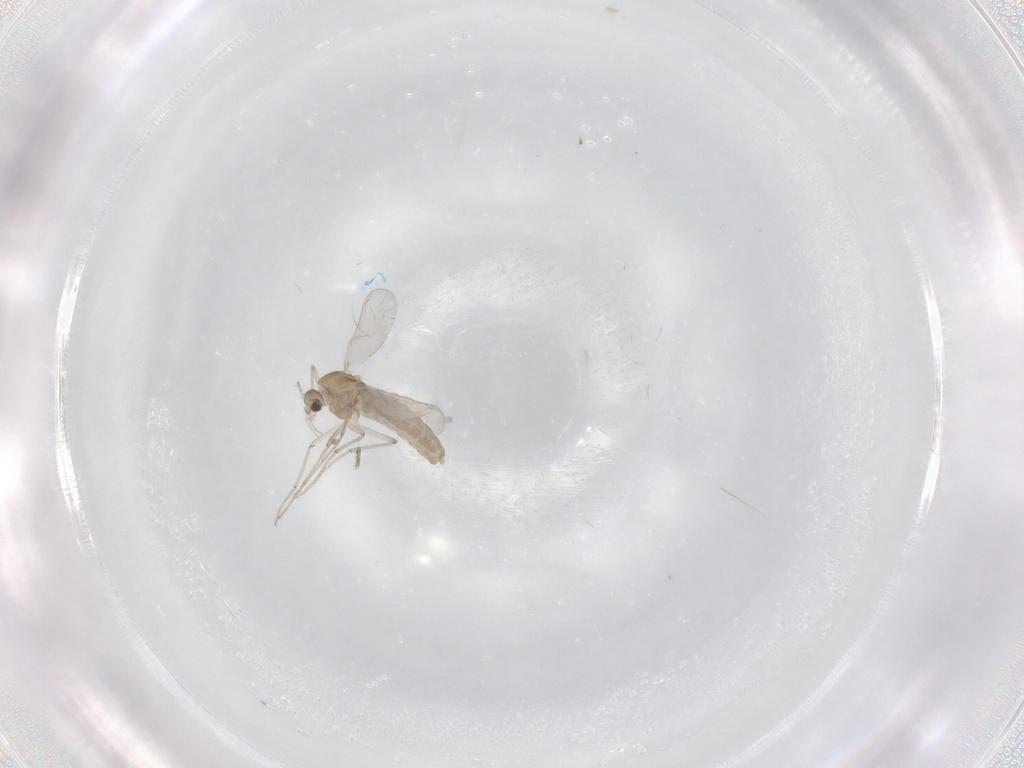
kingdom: Animalia
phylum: Arthropoda
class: Insecta
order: Diptera
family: Chironomidae
